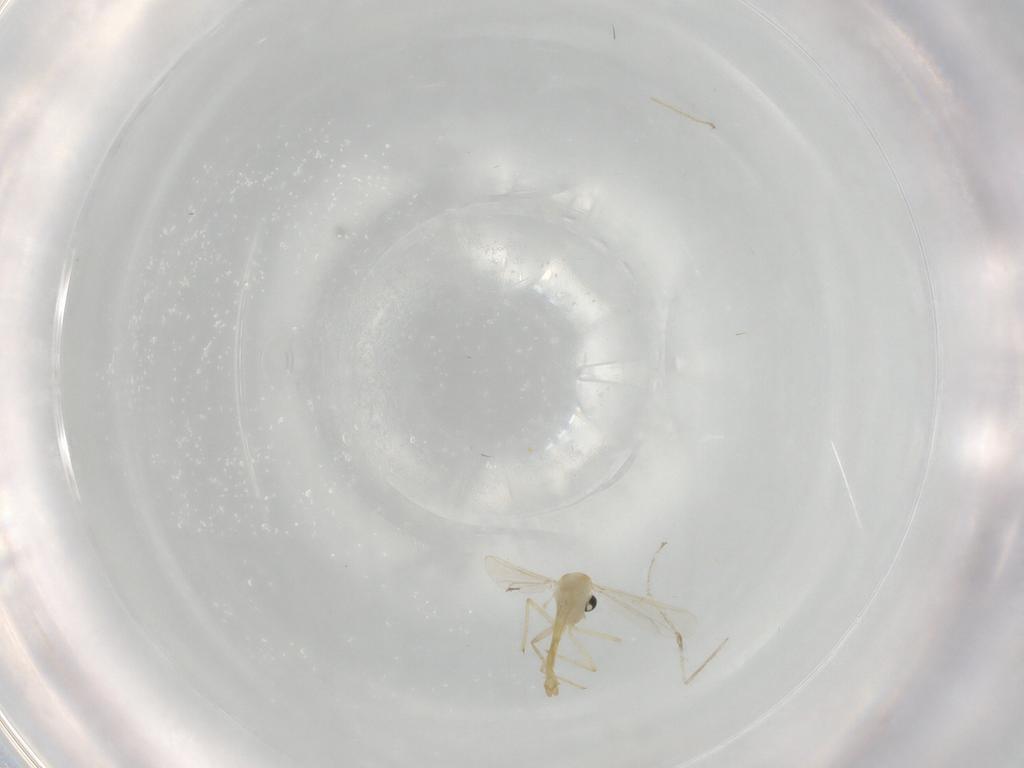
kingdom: Animalia
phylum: Arthropoda
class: Insecta
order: Diptera
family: Chironomidae
